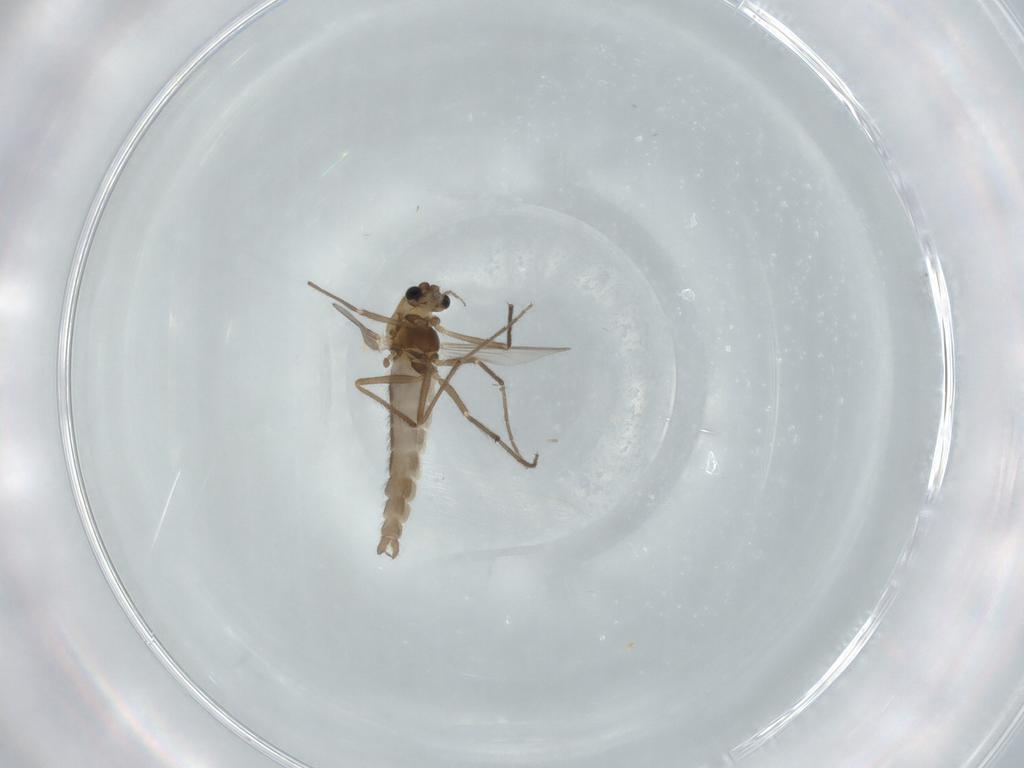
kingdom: Animalia
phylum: Arthropoda
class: Insecta
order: Diptera
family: Chironomidae
